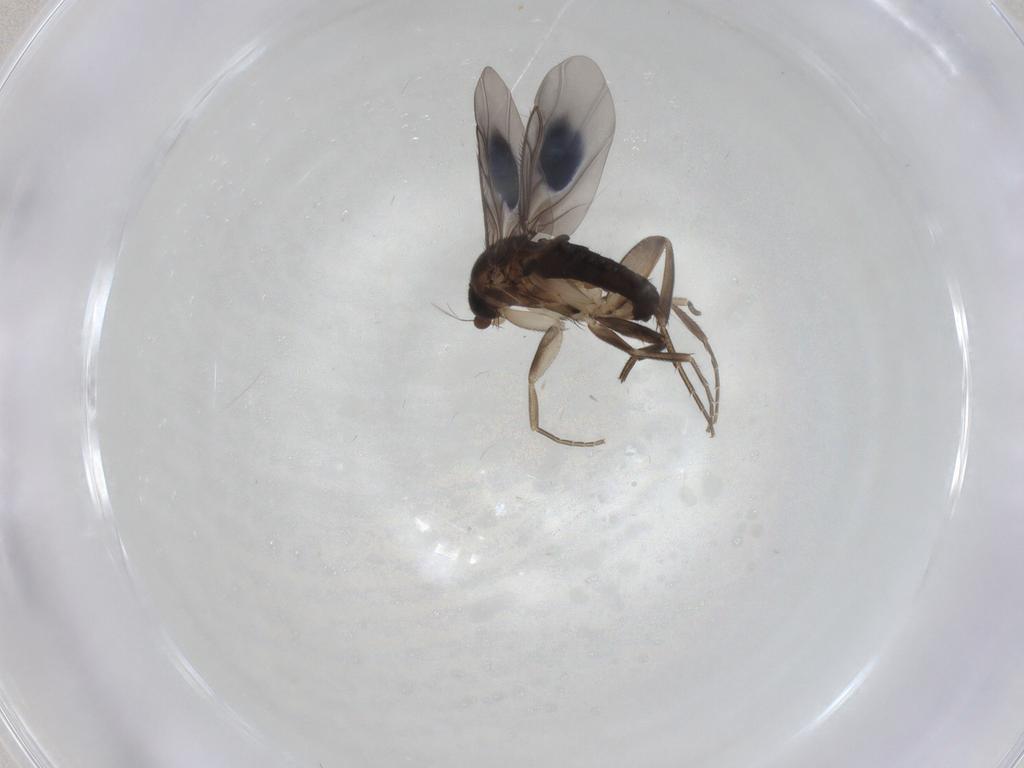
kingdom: Animalia
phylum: Arthropoda
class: Insecta
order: Diptera
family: Phoridae
